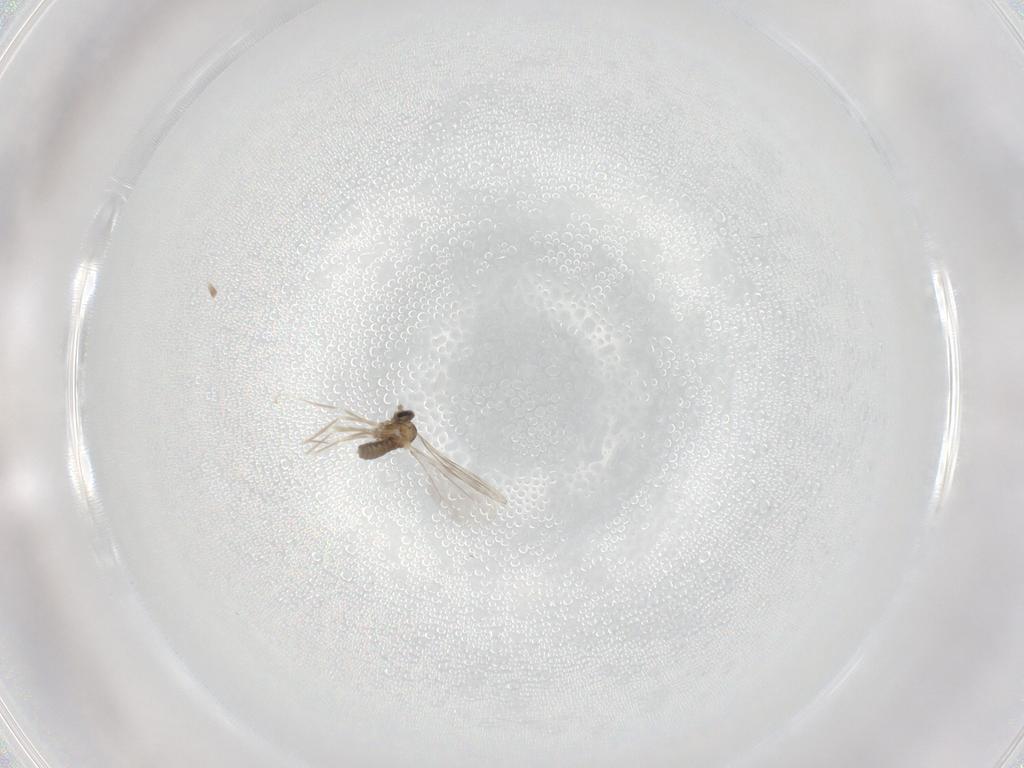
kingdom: Animalia
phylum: Arthropoda
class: Insecta
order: Diptera
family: Cecidomyiidae
